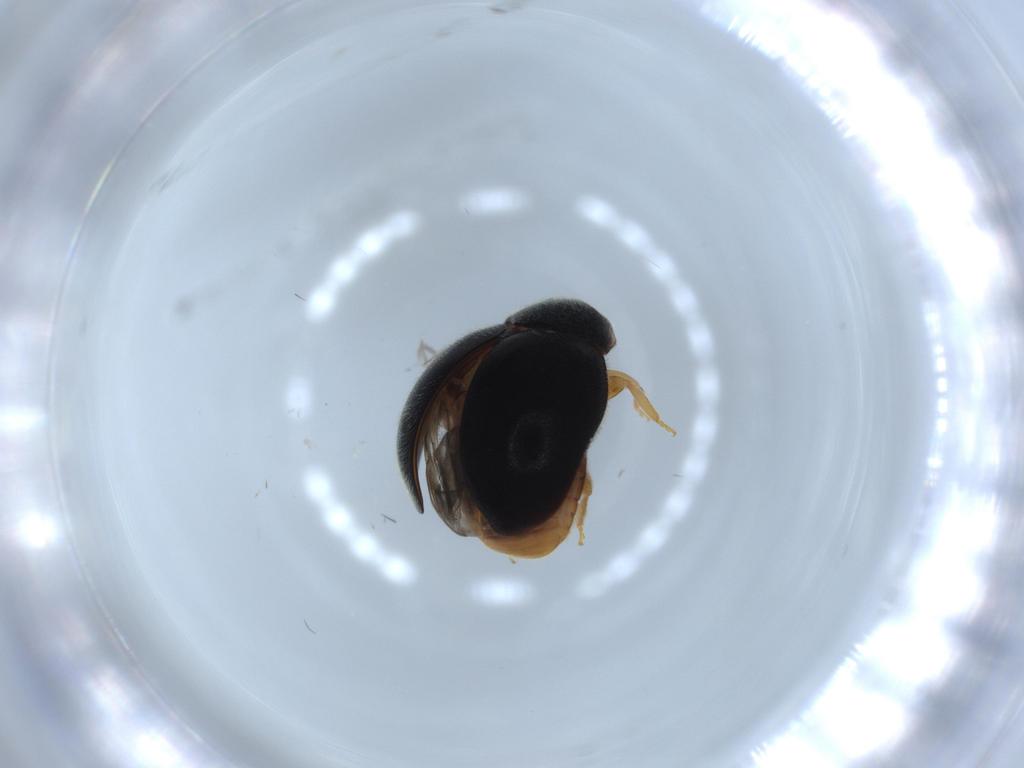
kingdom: Animalia
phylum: Arthropoda
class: Insecta
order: Coleoptera
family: Coccinellidae
